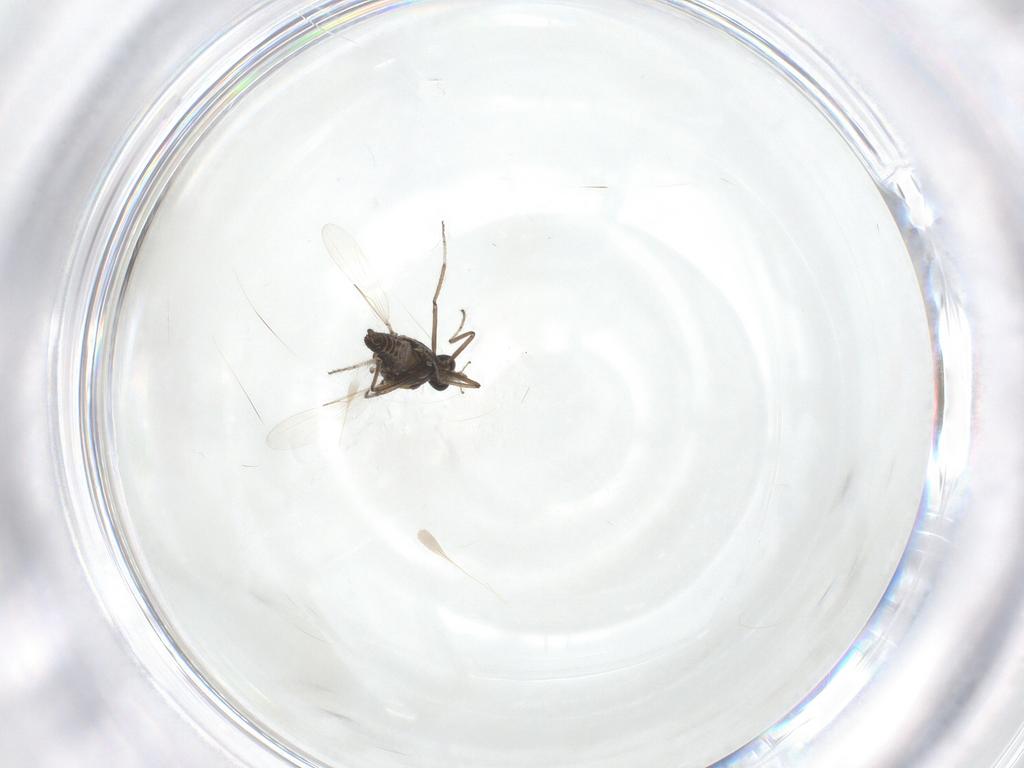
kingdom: Animalia
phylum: Arthropoda
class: Insecta
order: Diptera
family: Ceratopogonidae
